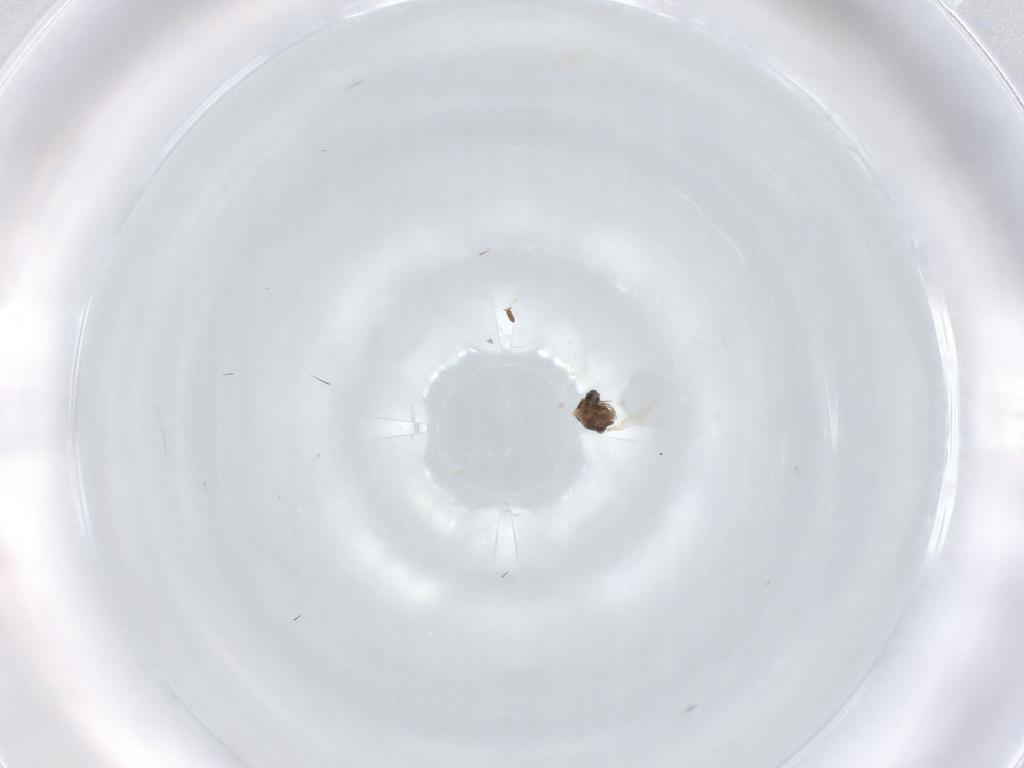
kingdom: Animalia
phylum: Arthropoda
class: Insecta
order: Diptera
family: Cecidomyiidae
